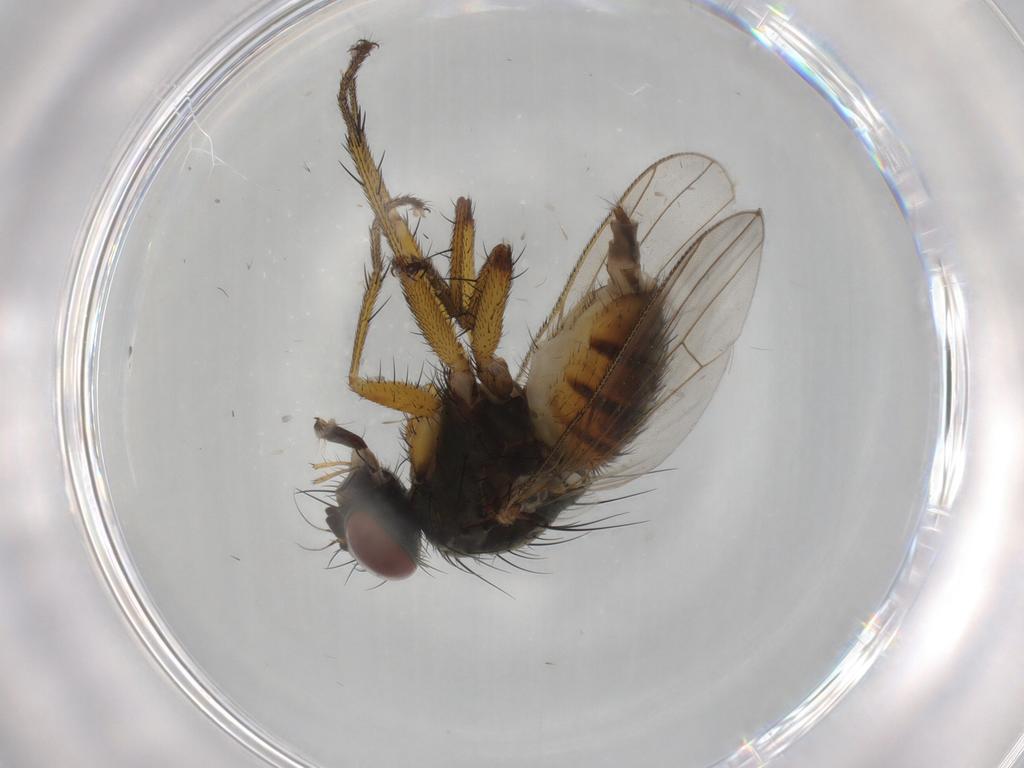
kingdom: Animalia
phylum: Arthropoda
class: Insecta
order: Diptera
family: Muscidae
